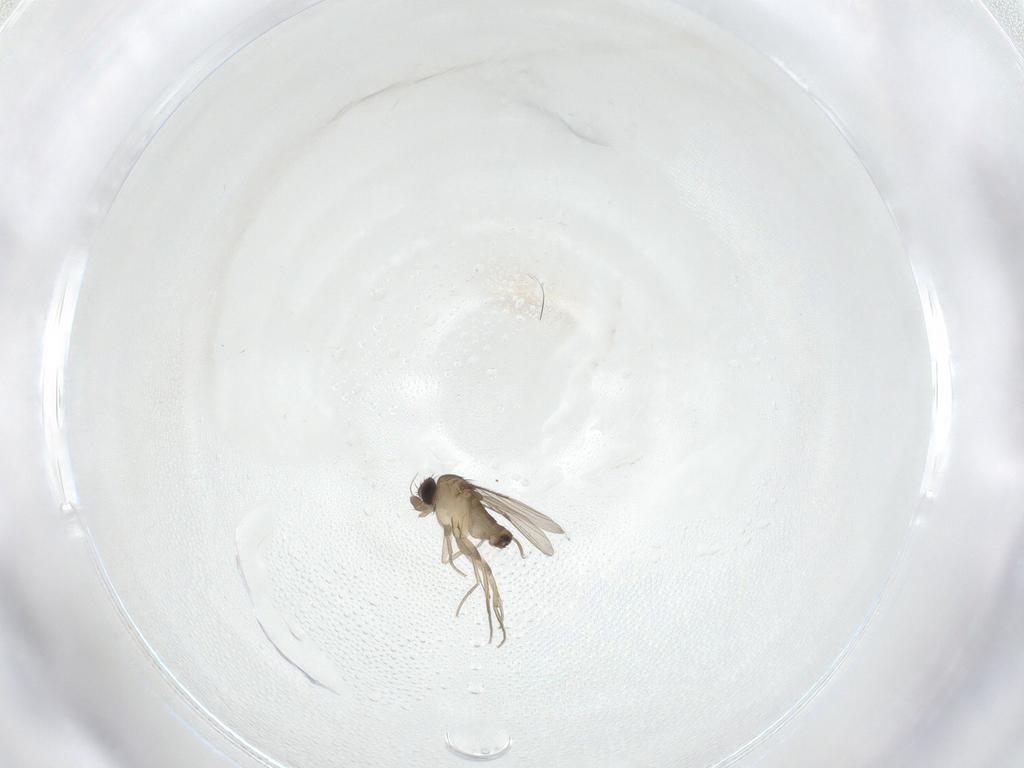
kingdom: Animalia
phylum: Arthropoda
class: Insecta
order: Diptera
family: Phoridae
